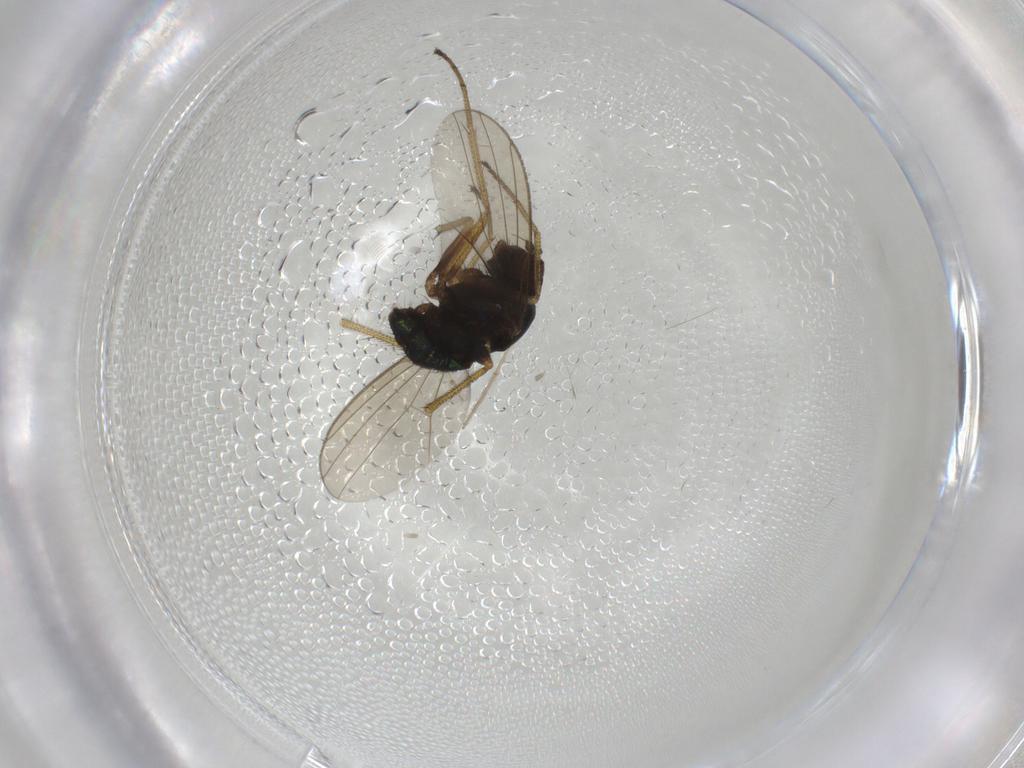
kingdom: Animalia
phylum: Arthropoda
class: Insecta
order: Diptera
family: Dolichopodidae
